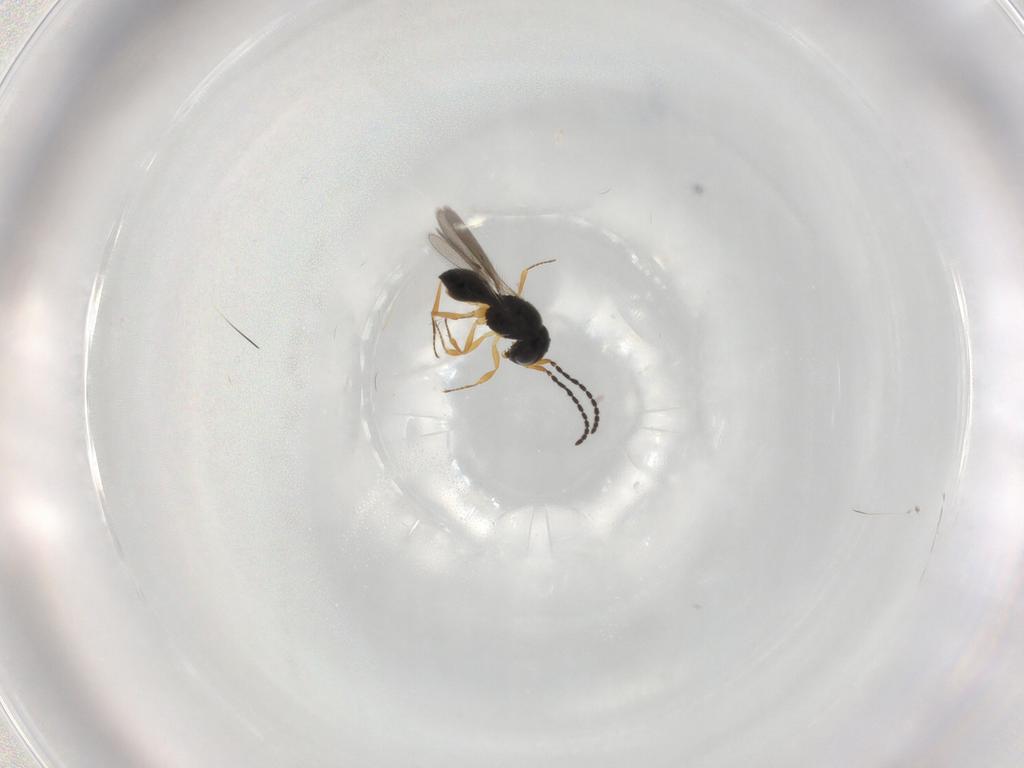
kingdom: Animalia
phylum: Arthropoda
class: Insecta
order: Hymenoptera
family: Scelionidae
